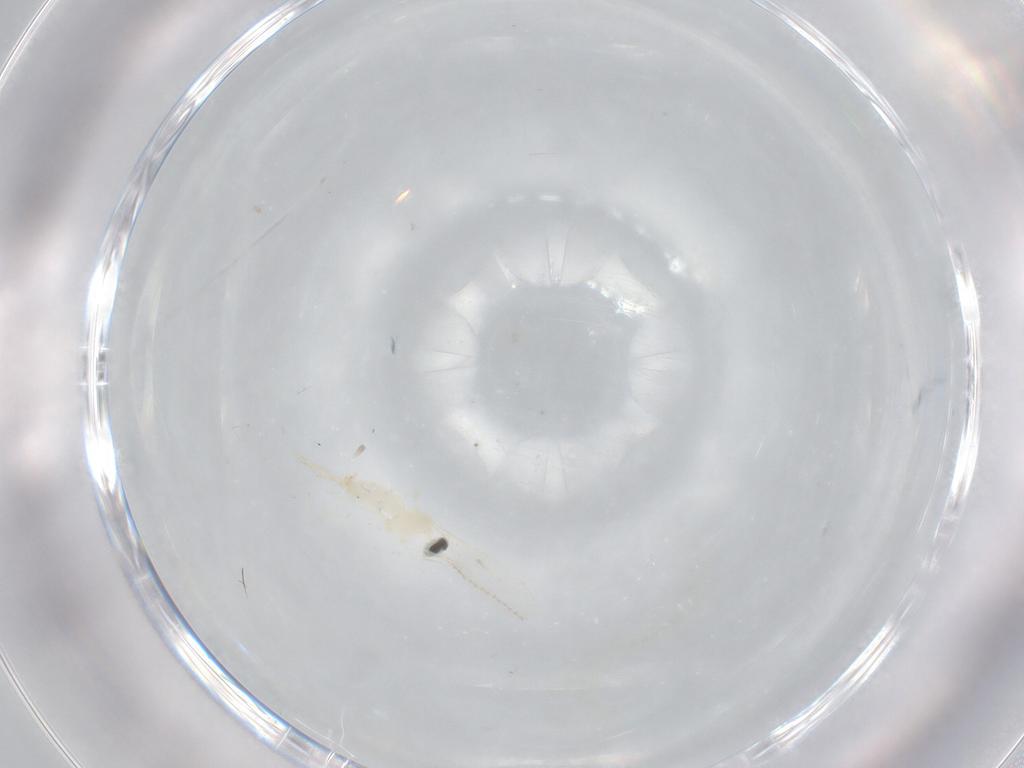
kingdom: Animalia
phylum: Arthropoda
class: Insecta
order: Diptera
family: Cecidomyiidae
